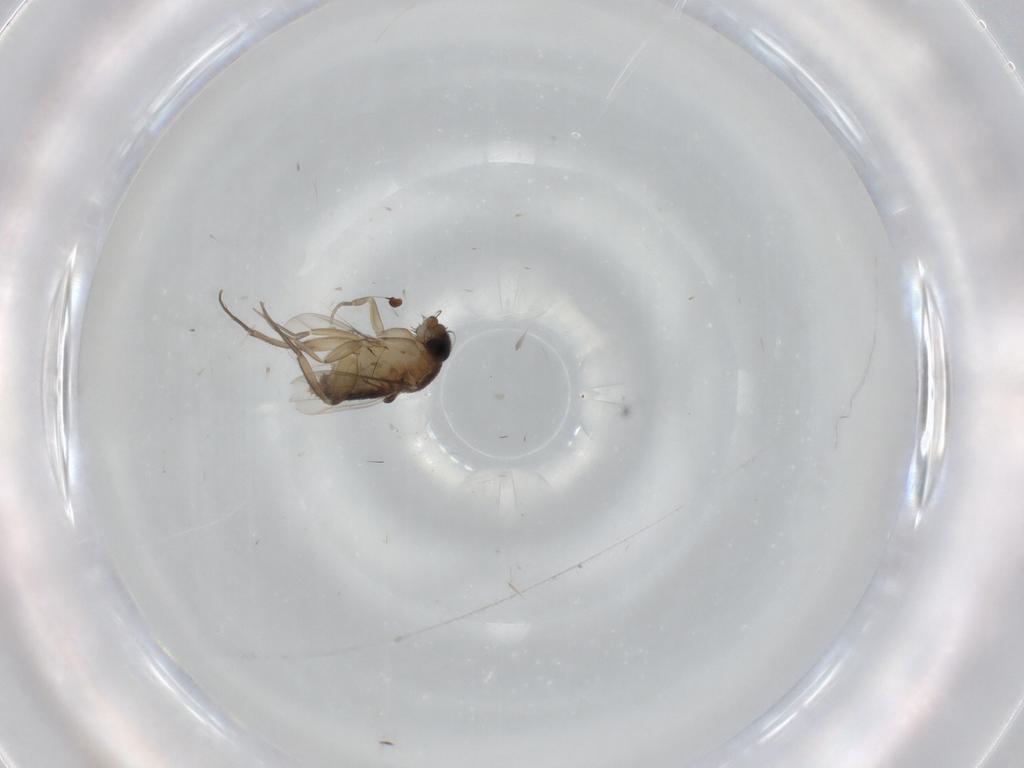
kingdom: Animalia
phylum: Arthropoda
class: Insecta
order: Diptera
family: Phoridae
